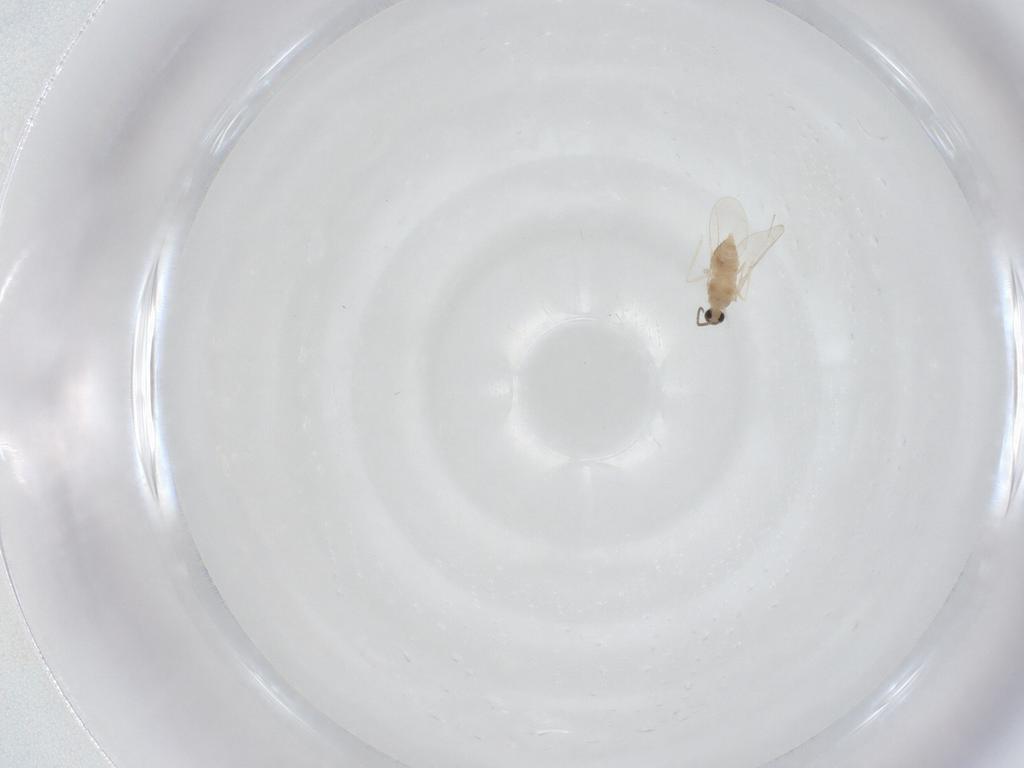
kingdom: Animalia
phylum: Arthropoda
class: Insecta
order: Diptera
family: Cecidomyiidae
